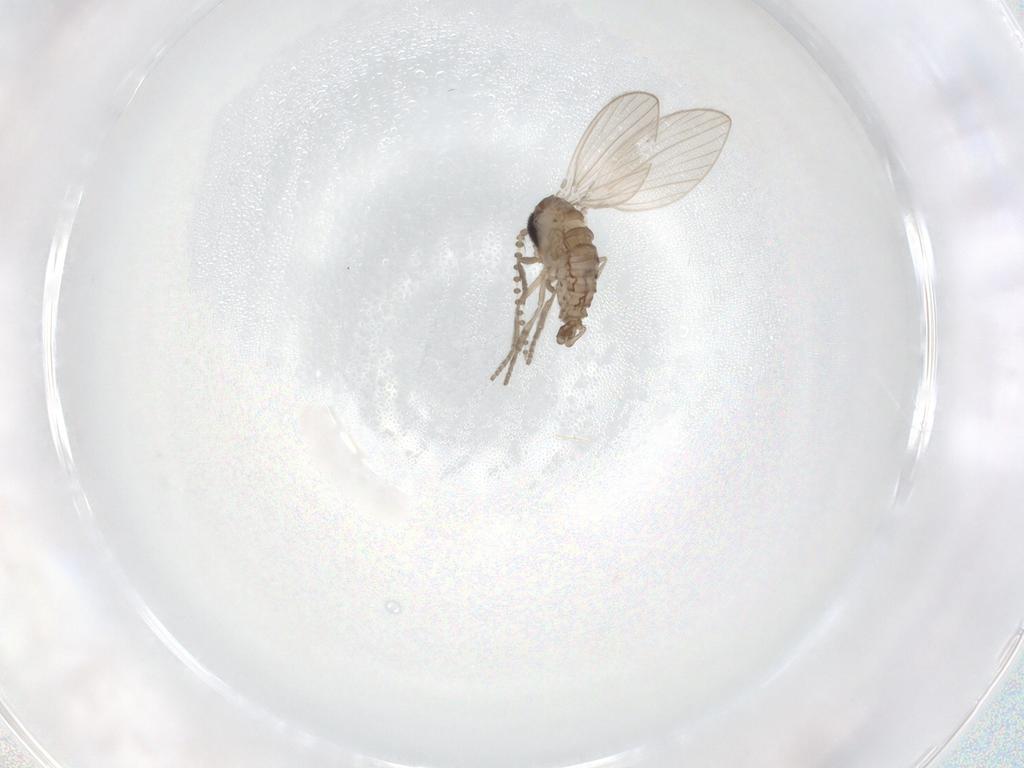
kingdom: Animalia
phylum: Arthropoda
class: Insecta
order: Diptera
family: Psychodidae
